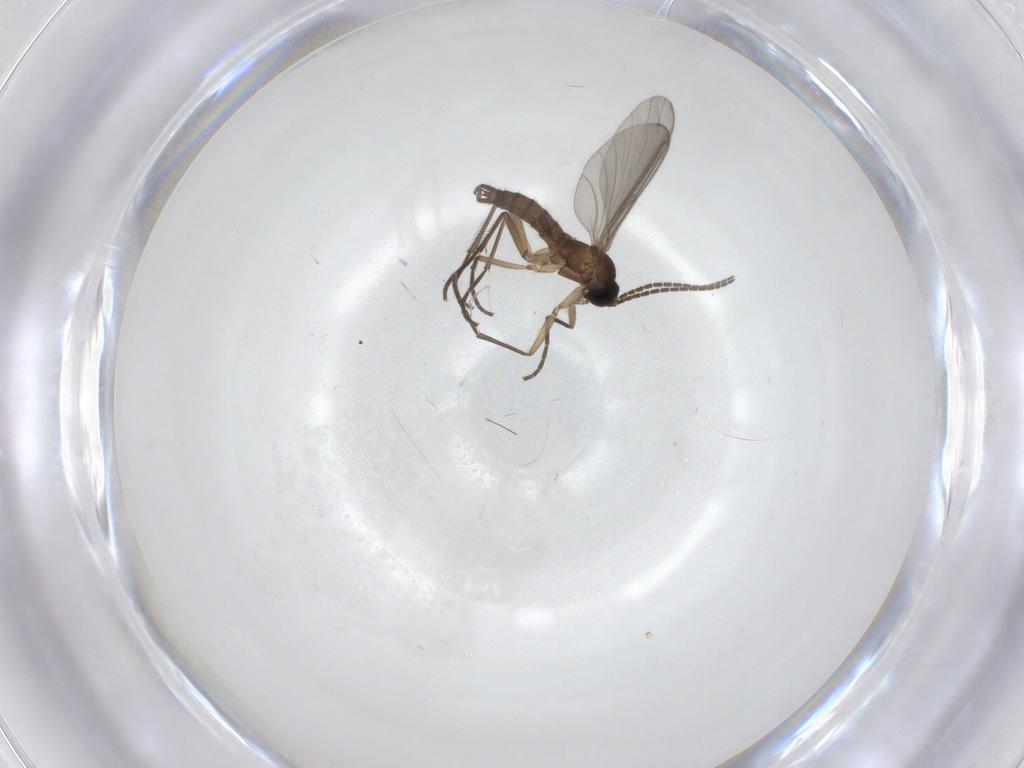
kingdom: Animalia
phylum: Arthropoda
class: Insecta
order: Diptera
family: Sciaridae
